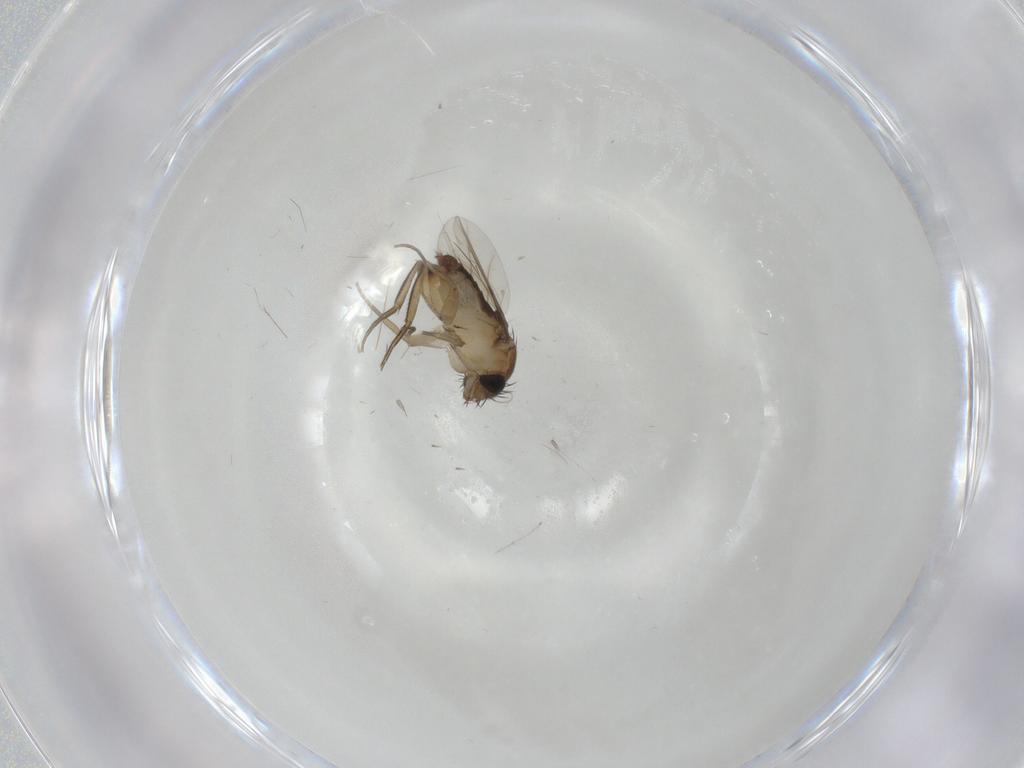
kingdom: Animalia
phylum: Arthropoda
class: Insecta
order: Diptera
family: Phoridae
